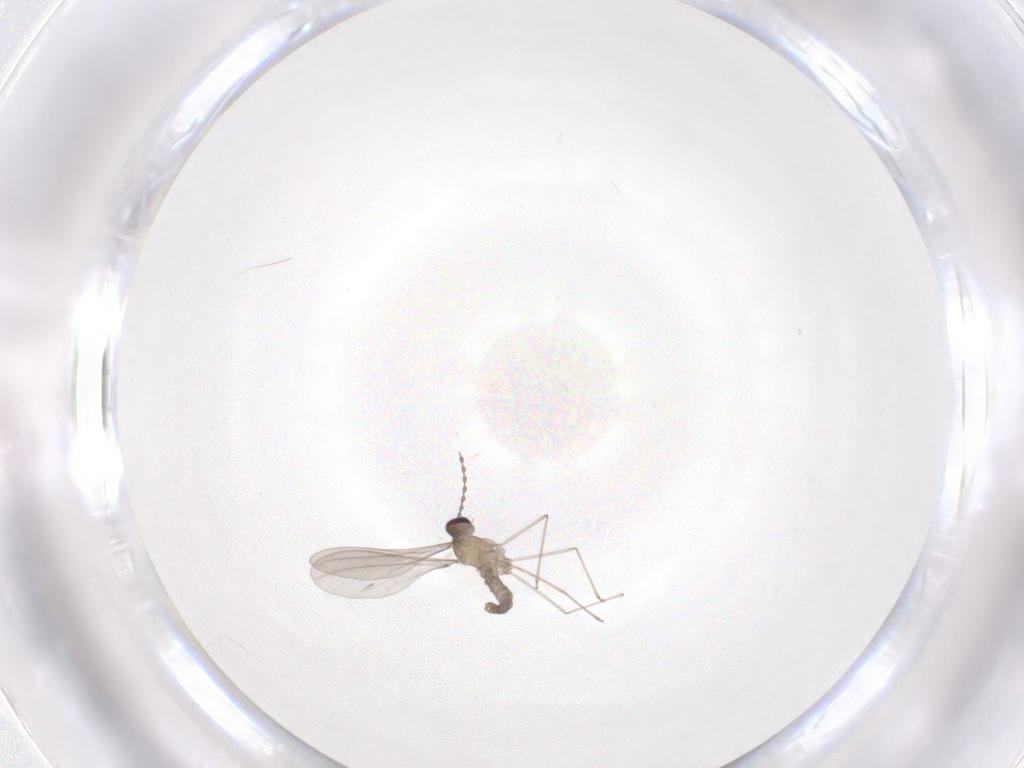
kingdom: Animalia
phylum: Arthropoda
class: Insecta
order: Diptera
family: Cecidomyiidae
